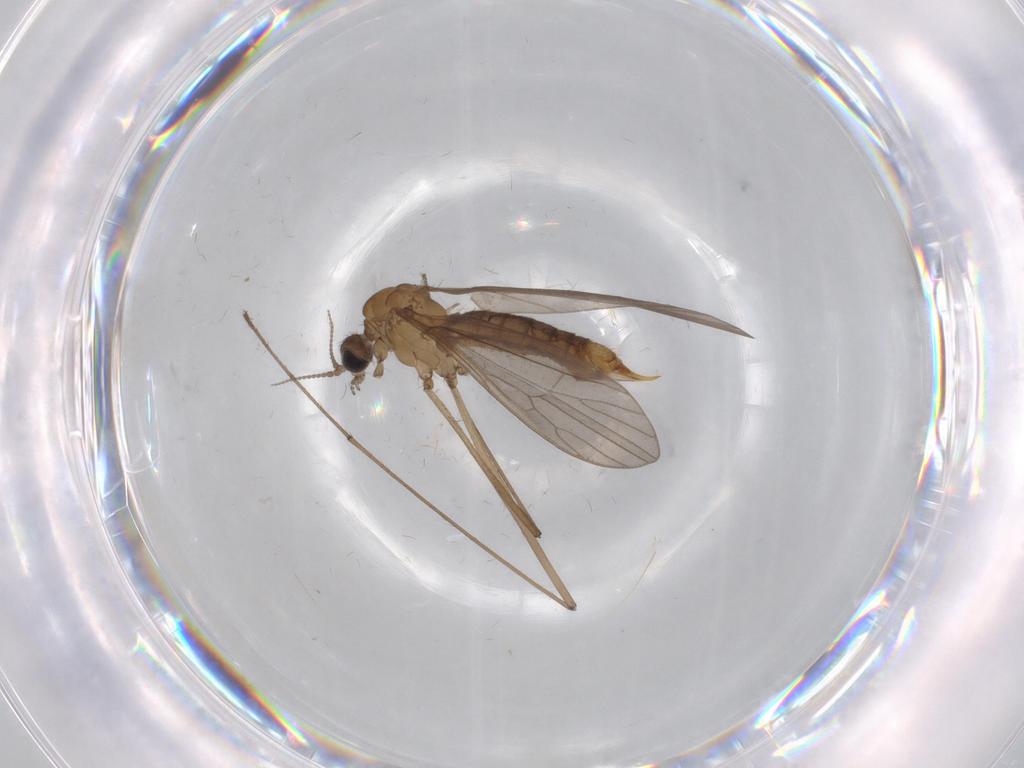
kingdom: Animalia
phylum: Arthropoda
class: Insecta
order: Diptera
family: Limoniidae
